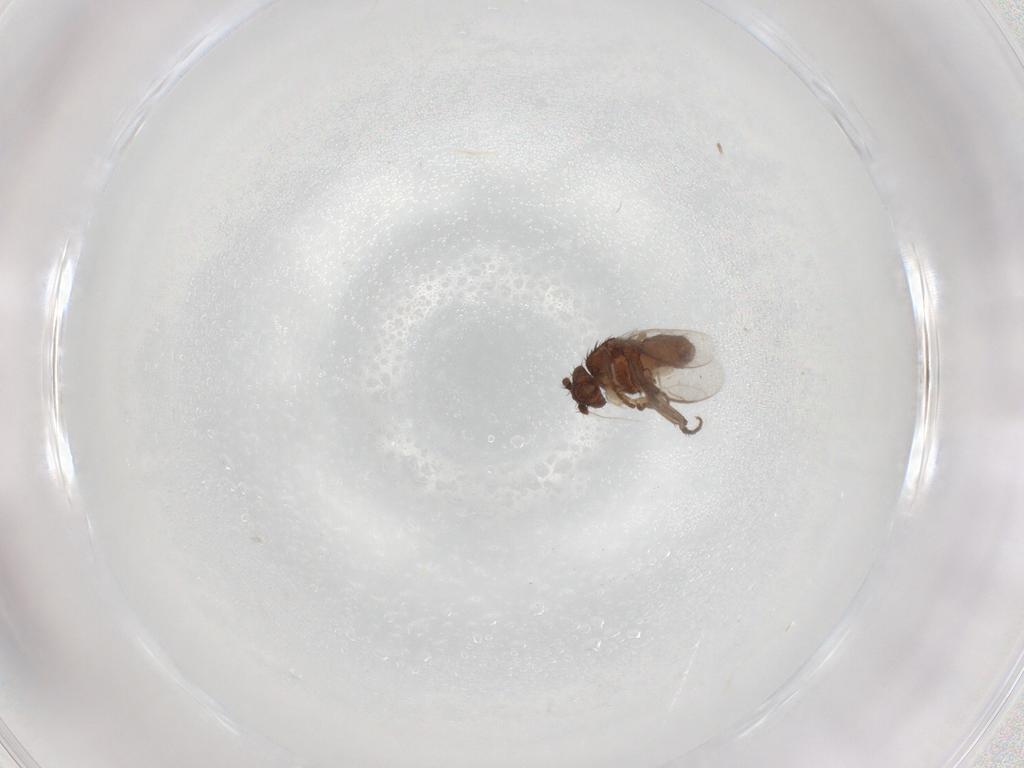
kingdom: Animalia
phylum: Arthropoda
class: Insecta
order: Diptera
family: Sphaeroceridae
